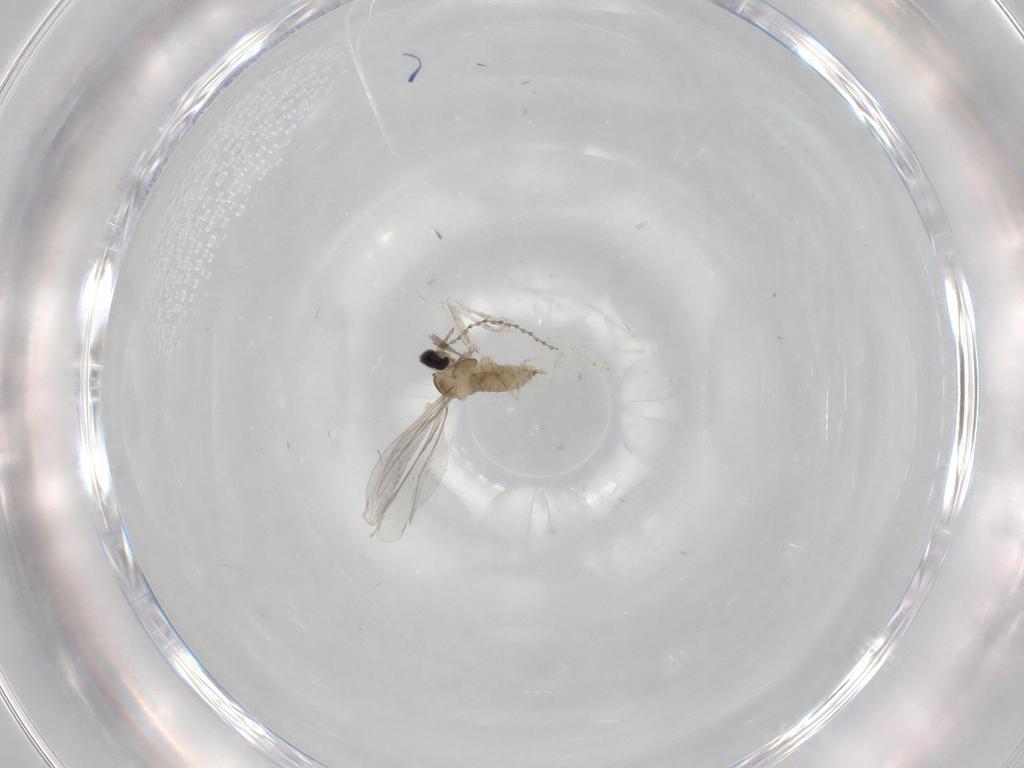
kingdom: Animalia
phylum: Arthropoda
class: Insecta
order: Diptera
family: Cecidomyiidae
